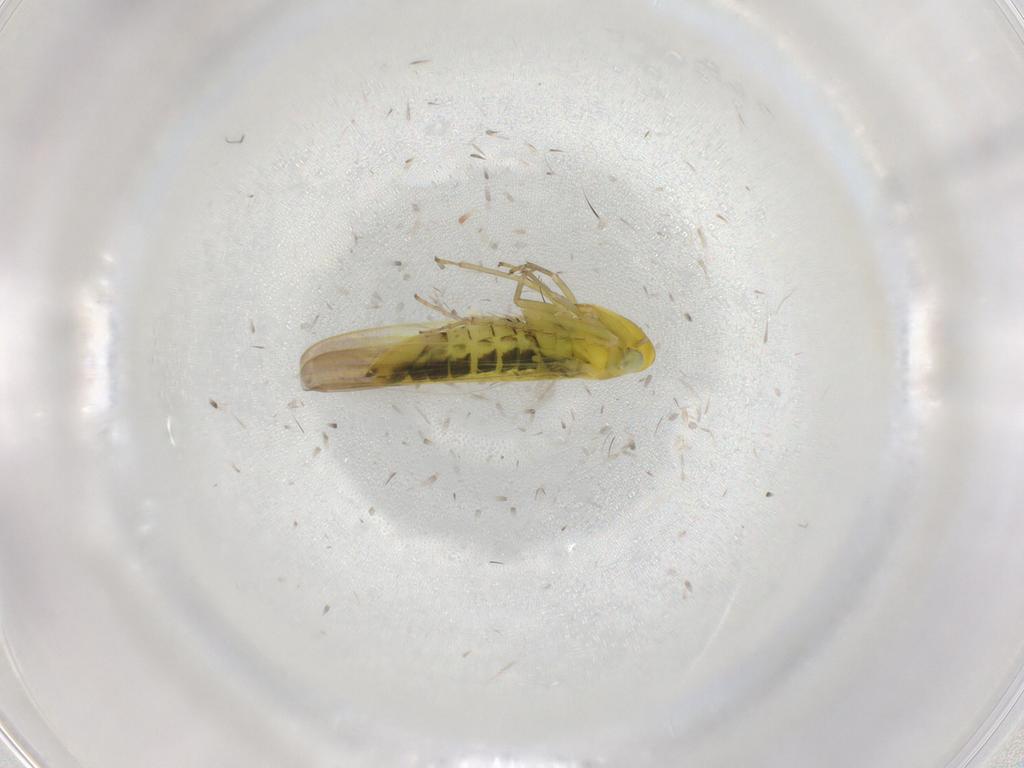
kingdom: Animalia
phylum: Arthropoda
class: Insecta
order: Hemiptera
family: Cicadellidae
